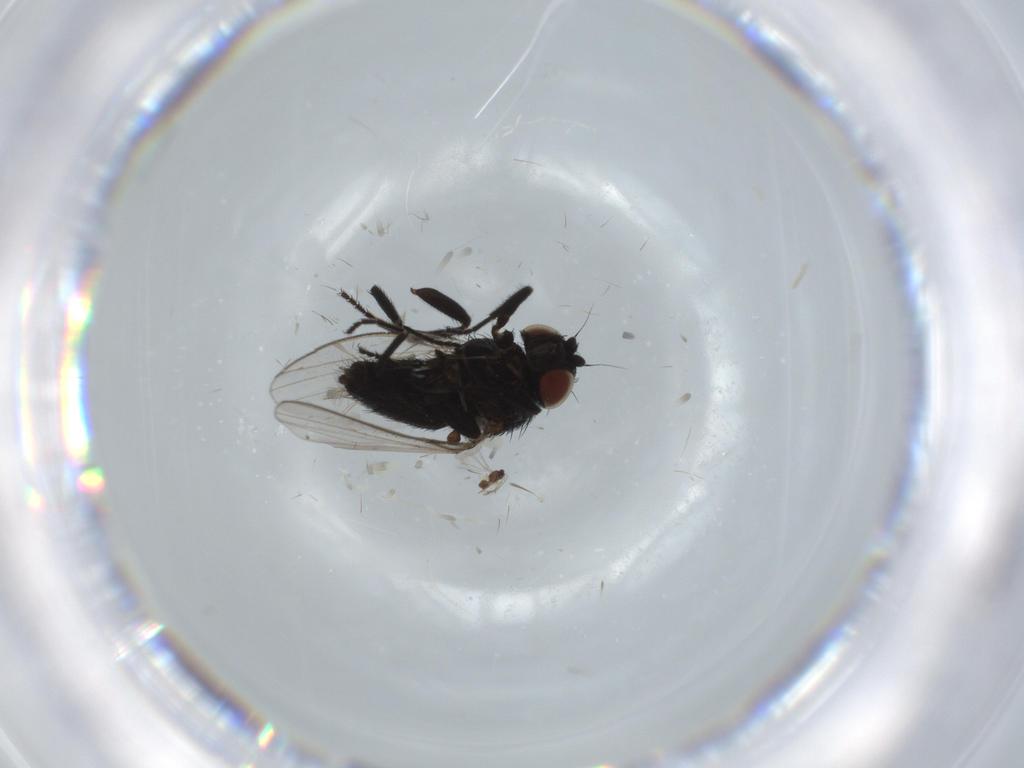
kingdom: Animalia
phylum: Arthropoda
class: Insecta
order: Diptera
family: Milichiidae
